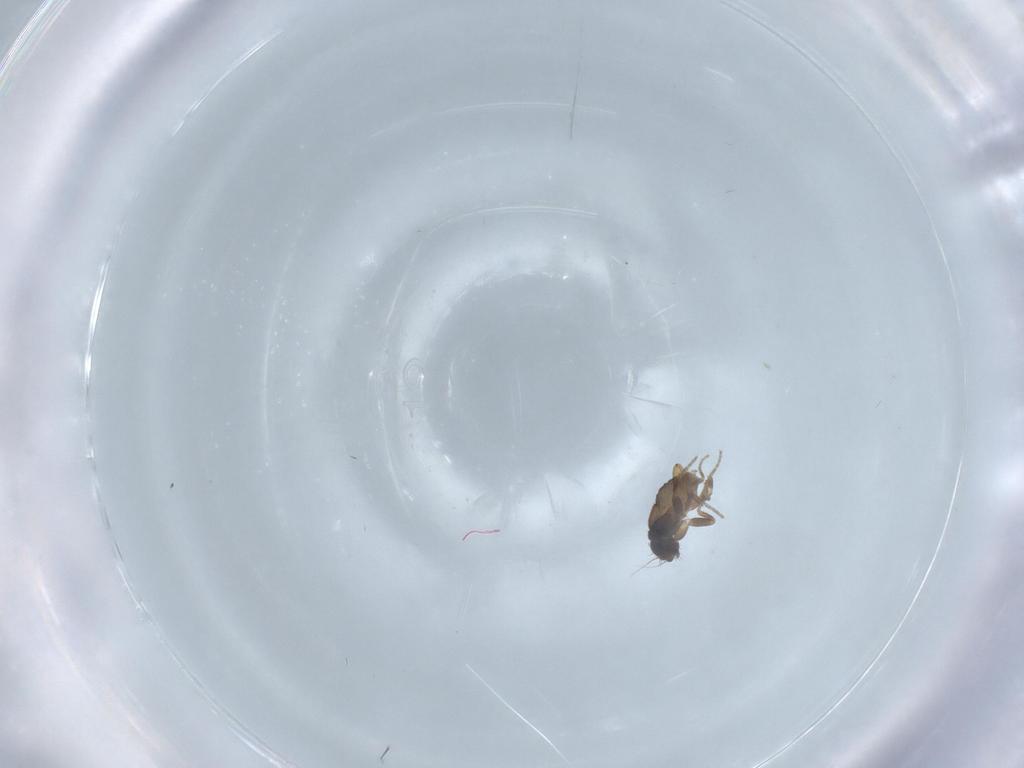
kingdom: Animalia
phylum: Arthropoda
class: Insecta
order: Diptera
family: Phoridae
